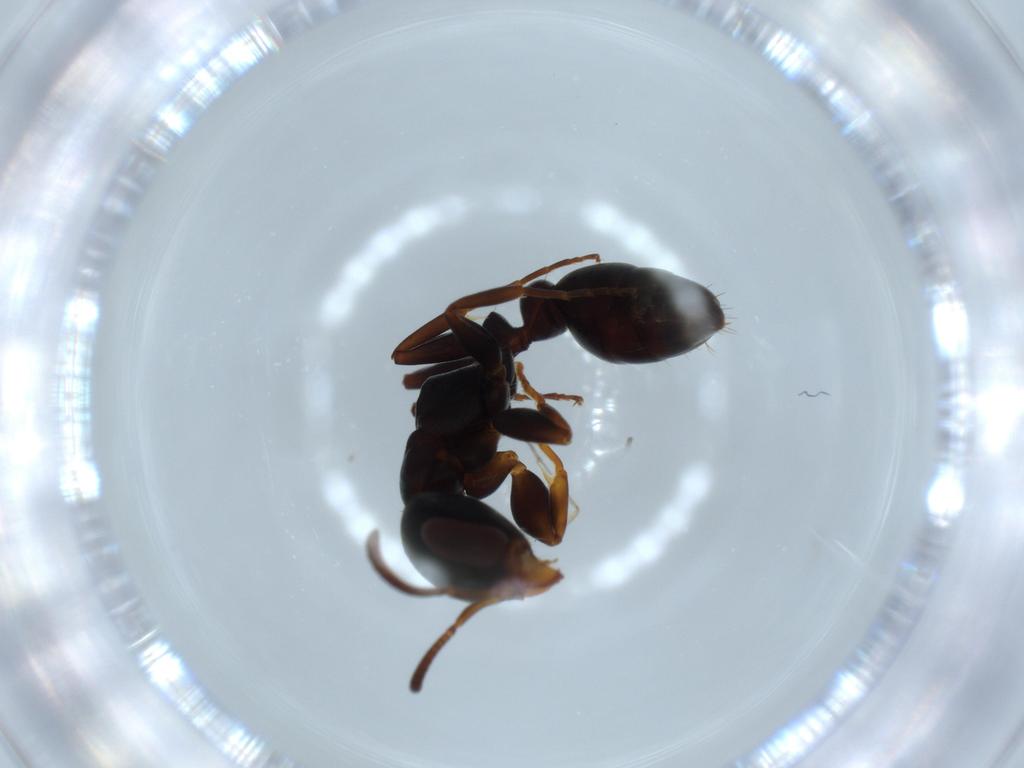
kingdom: Animalia
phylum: Arthropoda
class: Insecta
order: Hymenoptera
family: Formicidae
